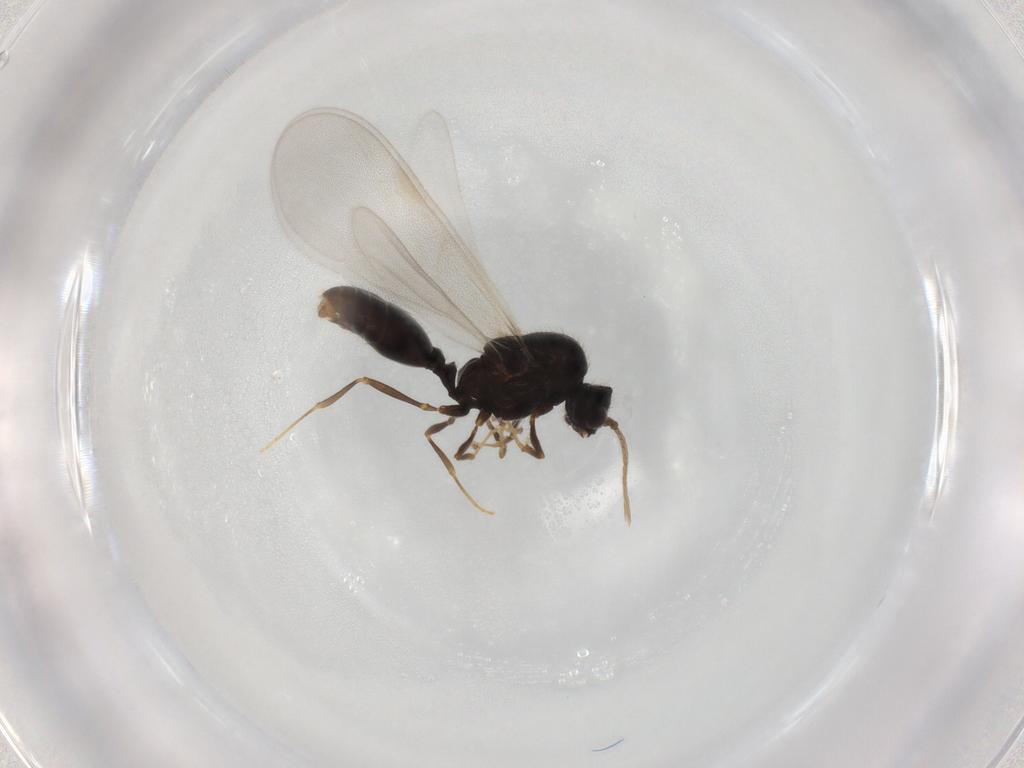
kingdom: Animalia
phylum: Arthropoda
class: Insecta
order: Hymenoptera
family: Formicidae
